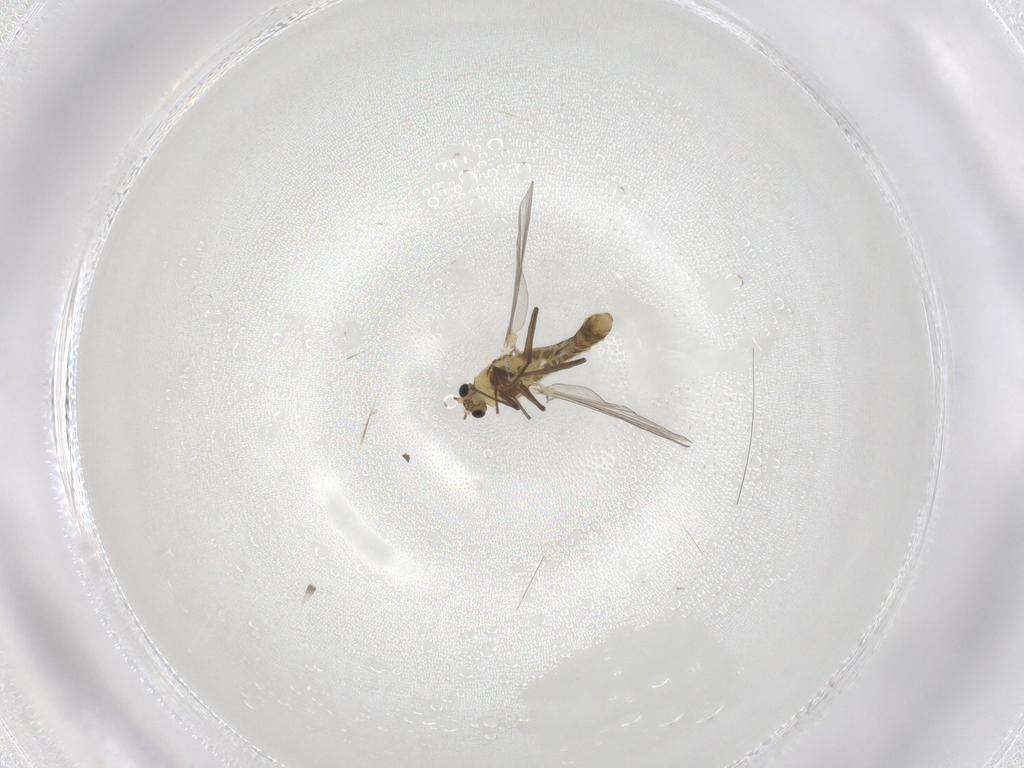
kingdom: Animalia
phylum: Arthropoda
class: Insecta
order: Diptera
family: Chironomidae
